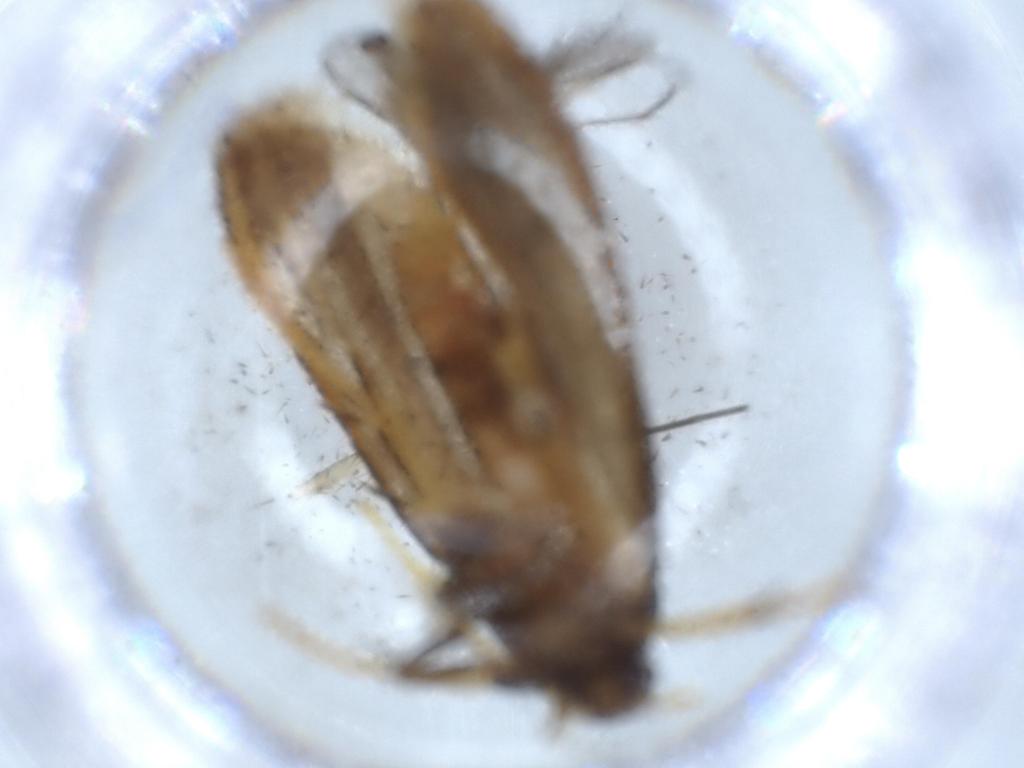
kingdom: Animalia
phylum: Arthropoda
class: Insecta
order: Lepidoptera
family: Lecithoceridae
